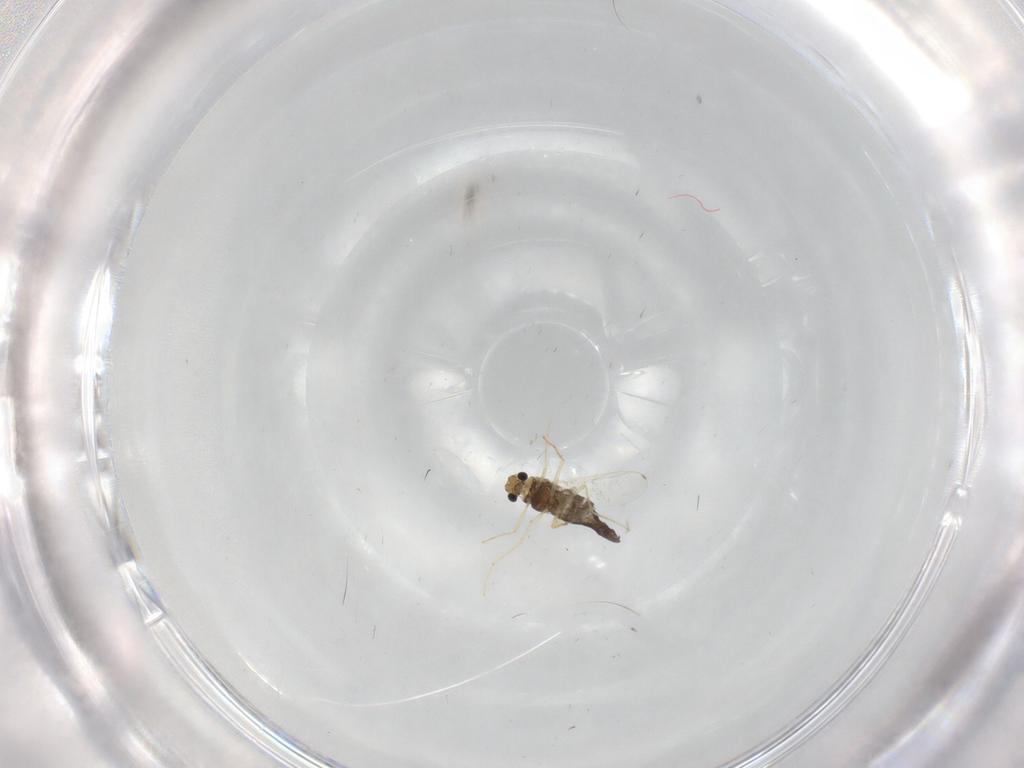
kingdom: Animalia
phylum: Arthropoda
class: Insecta
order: Diptera
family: Chironomidae
